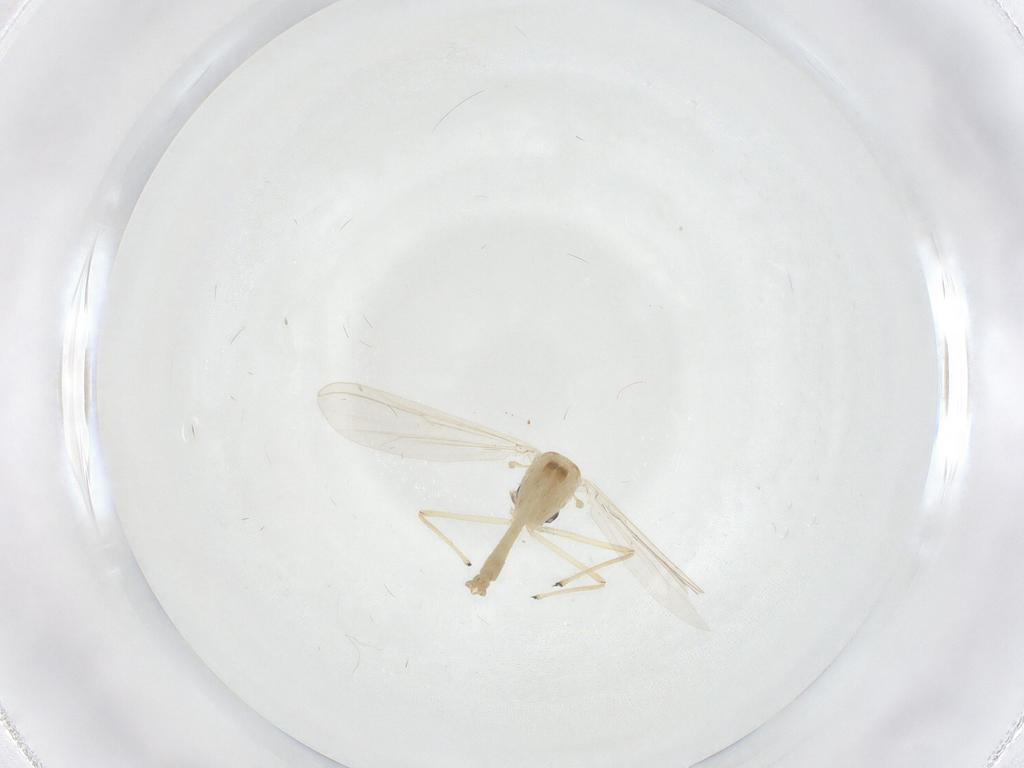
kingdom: Animalia
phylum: Arthropoda
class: Insecta
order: Diptera
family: Chironomidae
